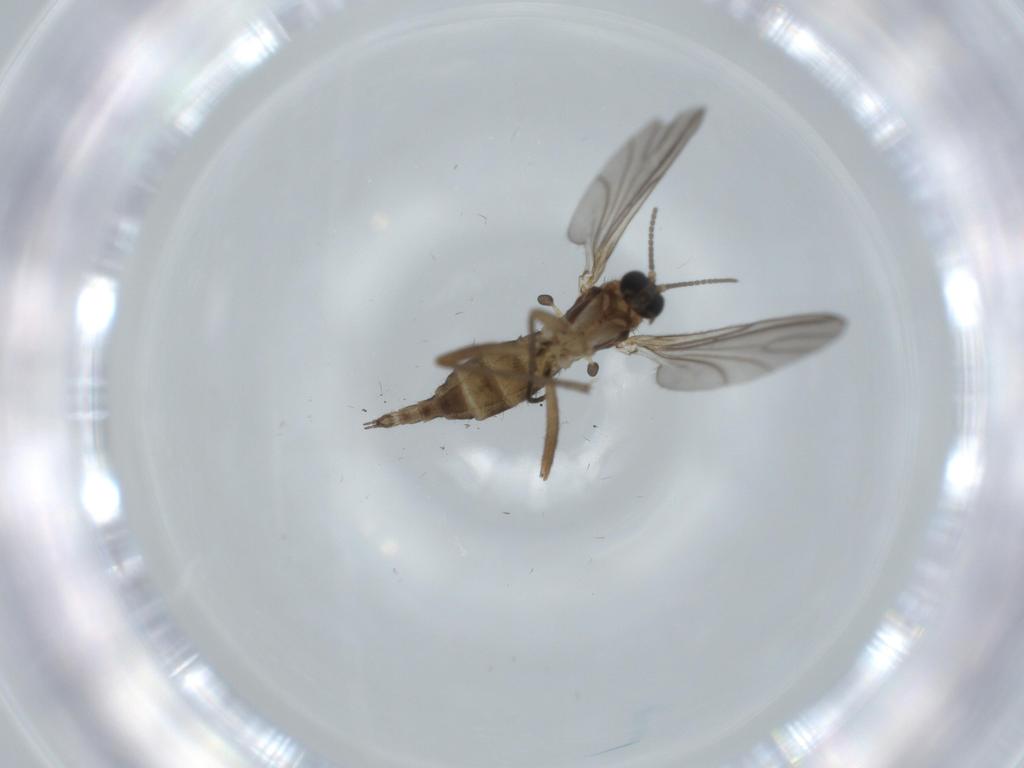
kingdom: Animalia
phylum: Arthropoda
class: Insecta
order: Diptera
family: Sciaridae
